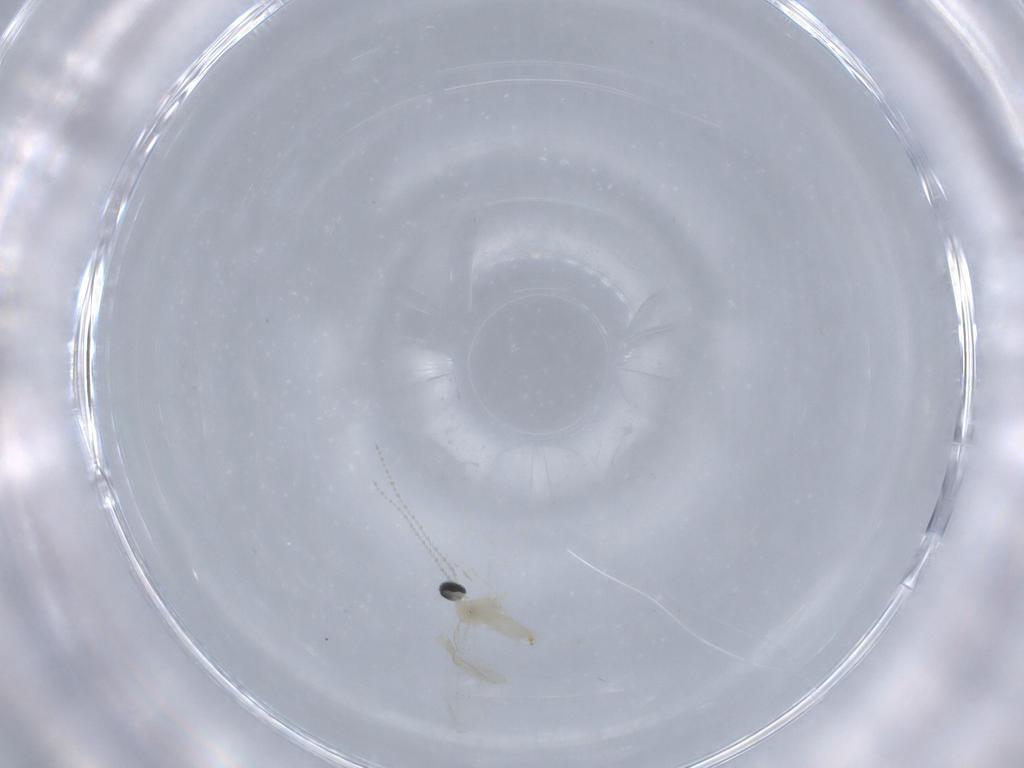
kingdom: Animalia
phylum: Arthropoda
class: Insecta
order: Diptera
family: Cecidomyiidae
